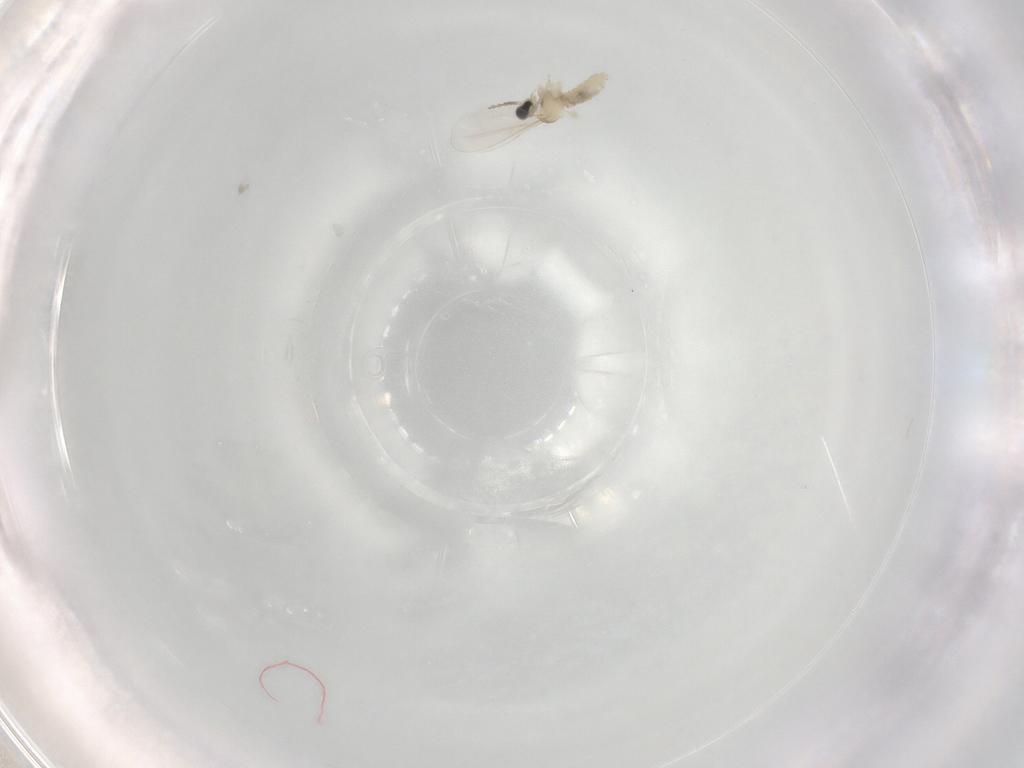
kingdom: Animalia
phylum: Arthropoda
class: Insecta
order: Diptera
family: Cecidomyiidae
